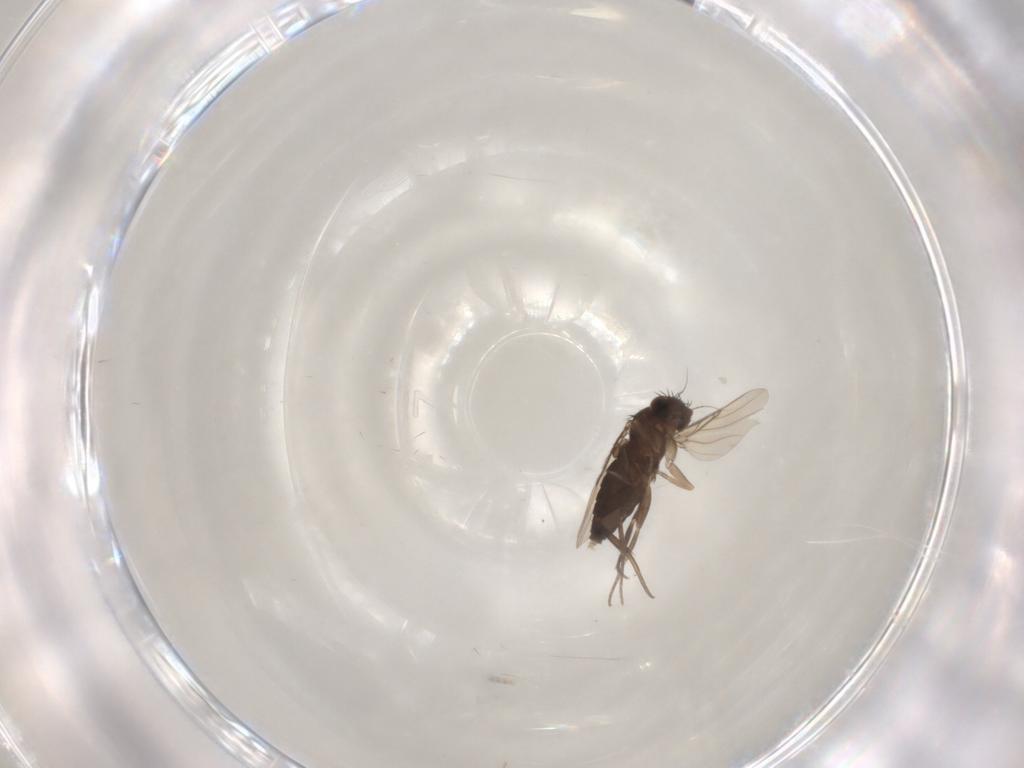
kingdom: Animalia
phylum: Arthropoda
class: Insecta
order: Diptera
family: Phoridae
